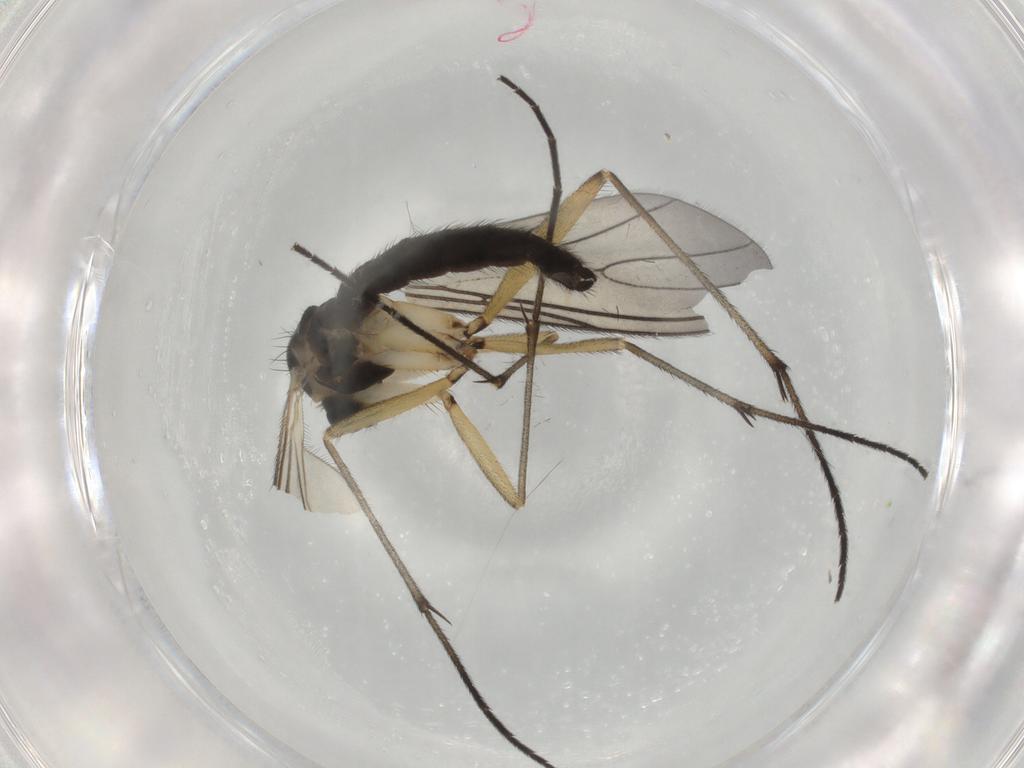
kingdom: Animalia
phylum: Arthropoda
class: Insecta
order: Diptera
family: Sciaridae
